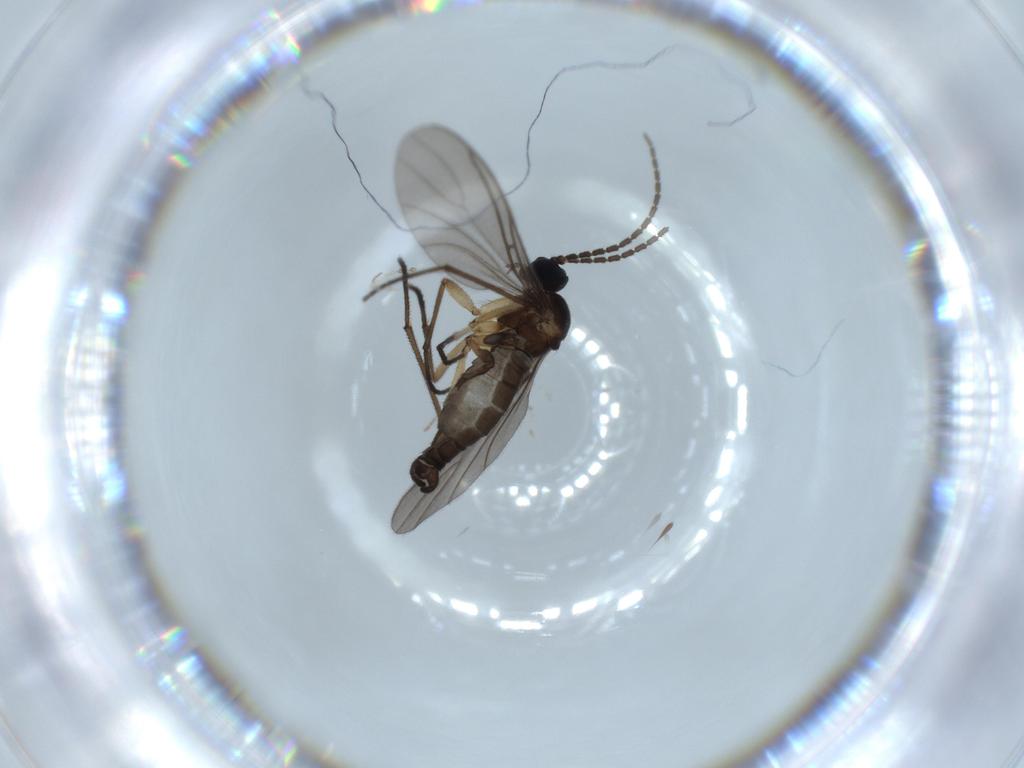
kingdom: Animalia
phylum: Arthropoda
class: Insecta
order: Diptera
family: Sciaridae
